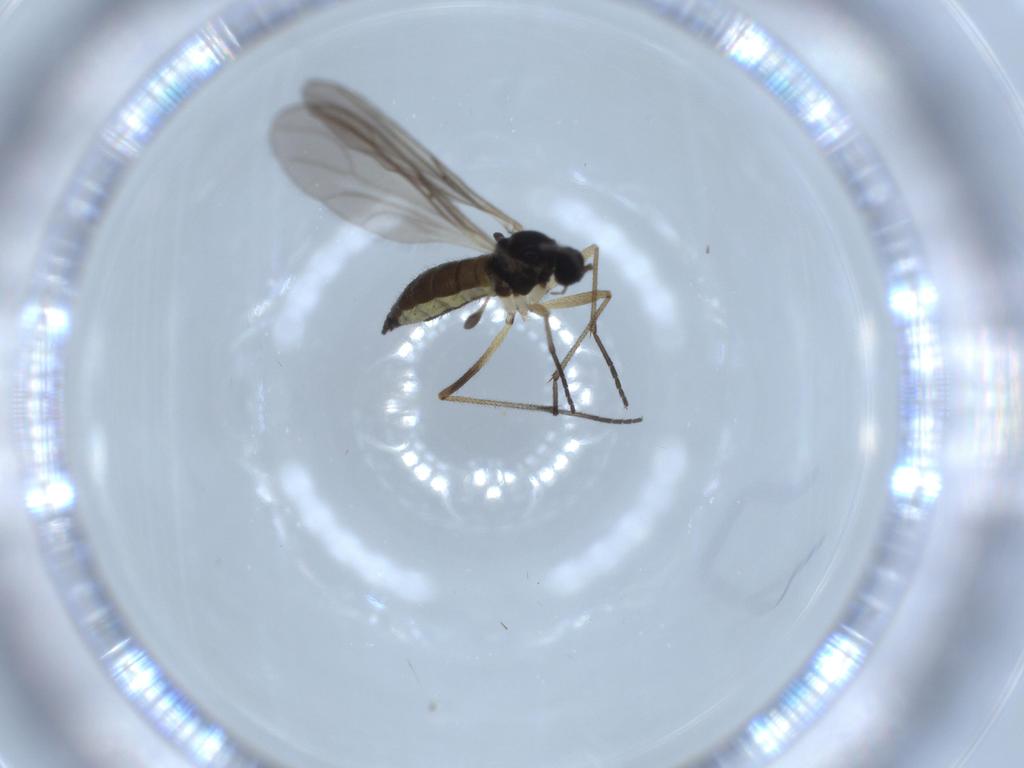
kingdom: Animalia
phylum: Arthropoda
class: Insecta
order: Diptera
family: Sciaridae
